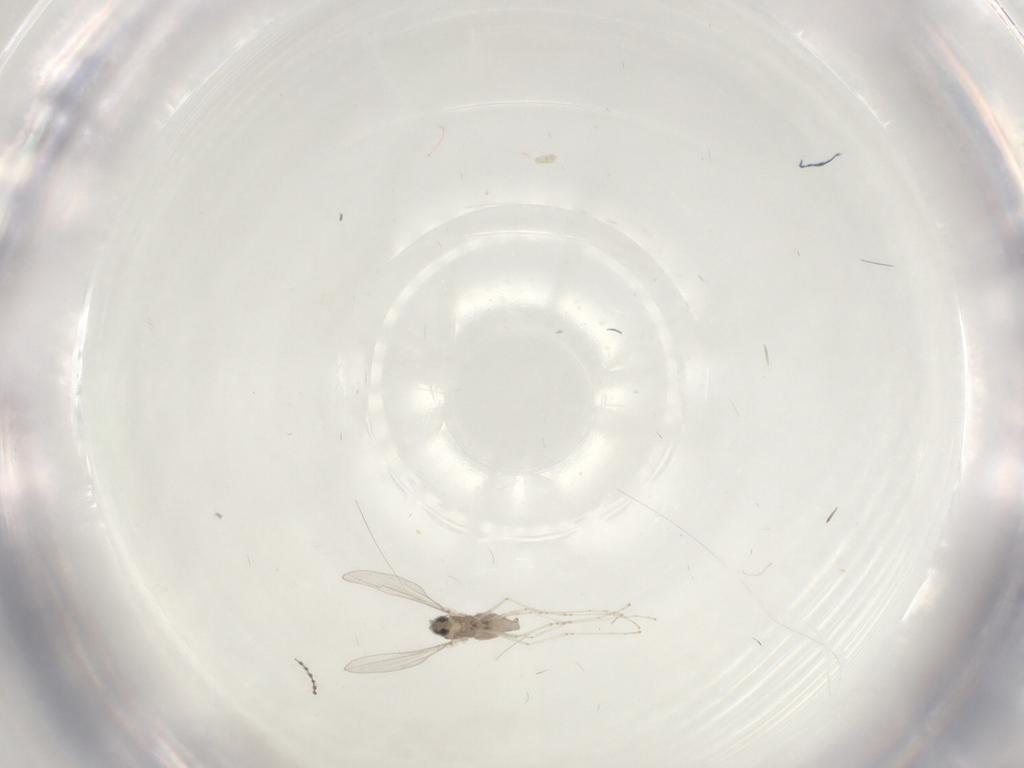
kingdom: Animalia
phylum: Arthropoda
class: Insecta
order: Diptera
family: Cecidomyiidae
